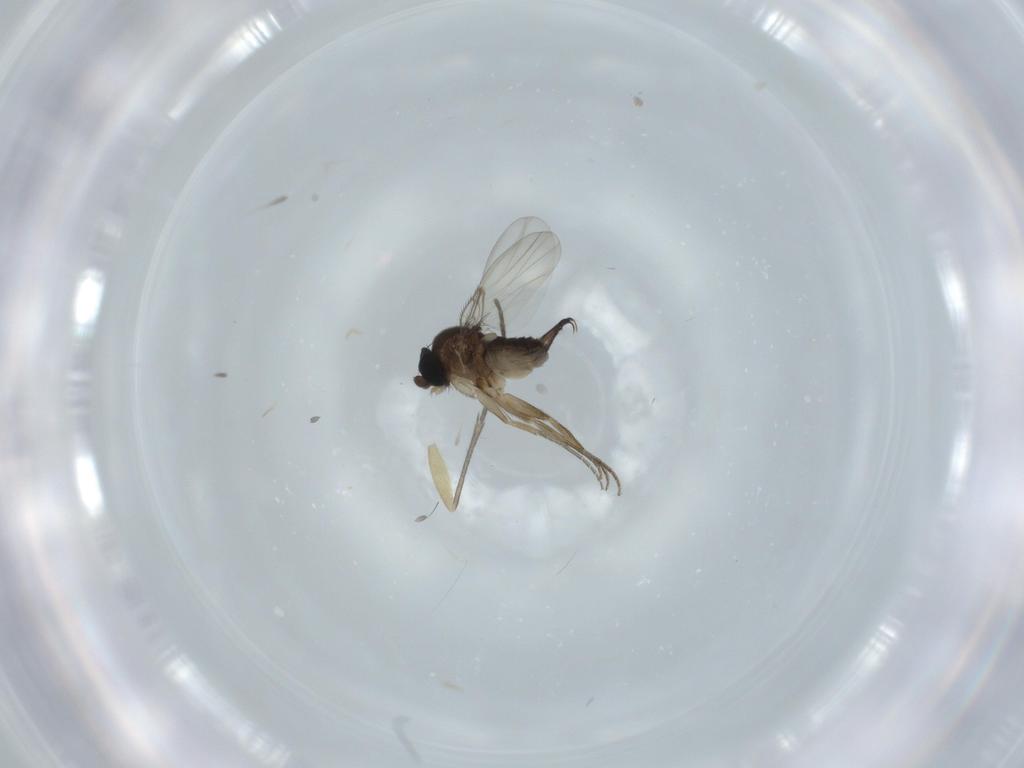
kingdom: Animalia
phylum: Arthropoda
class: Insecta
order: Diptera
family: Phoridae
